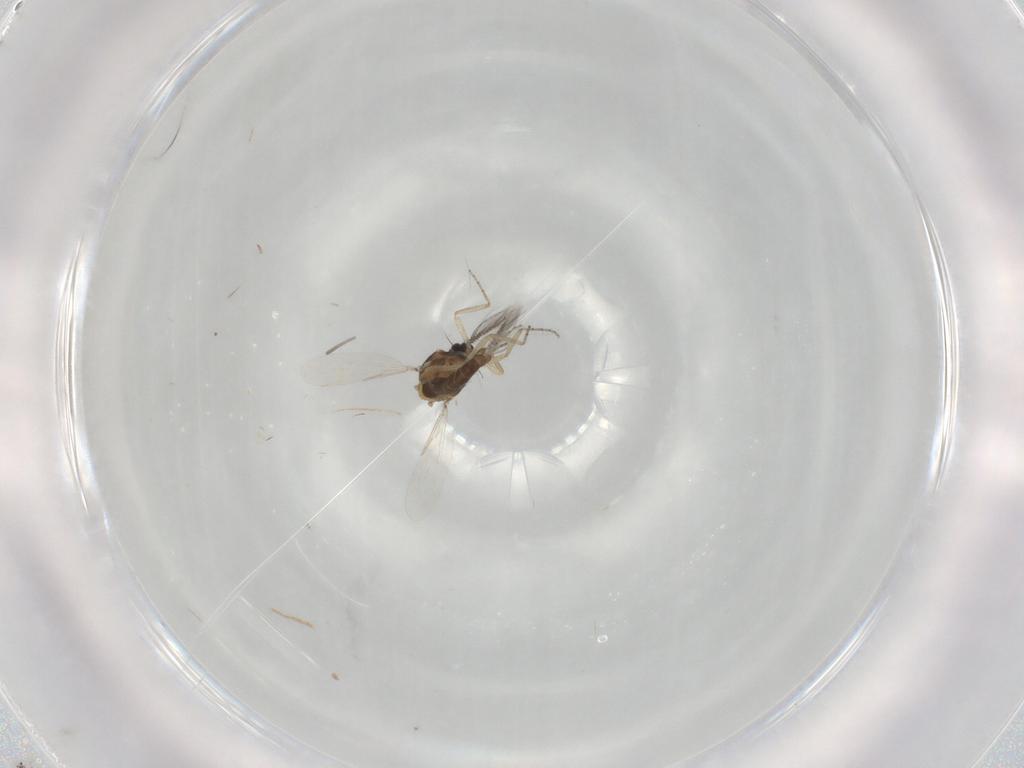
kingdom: Animalia
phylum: Arthropoda
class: Insecta
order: Diptera
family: Ceratopogonidae
